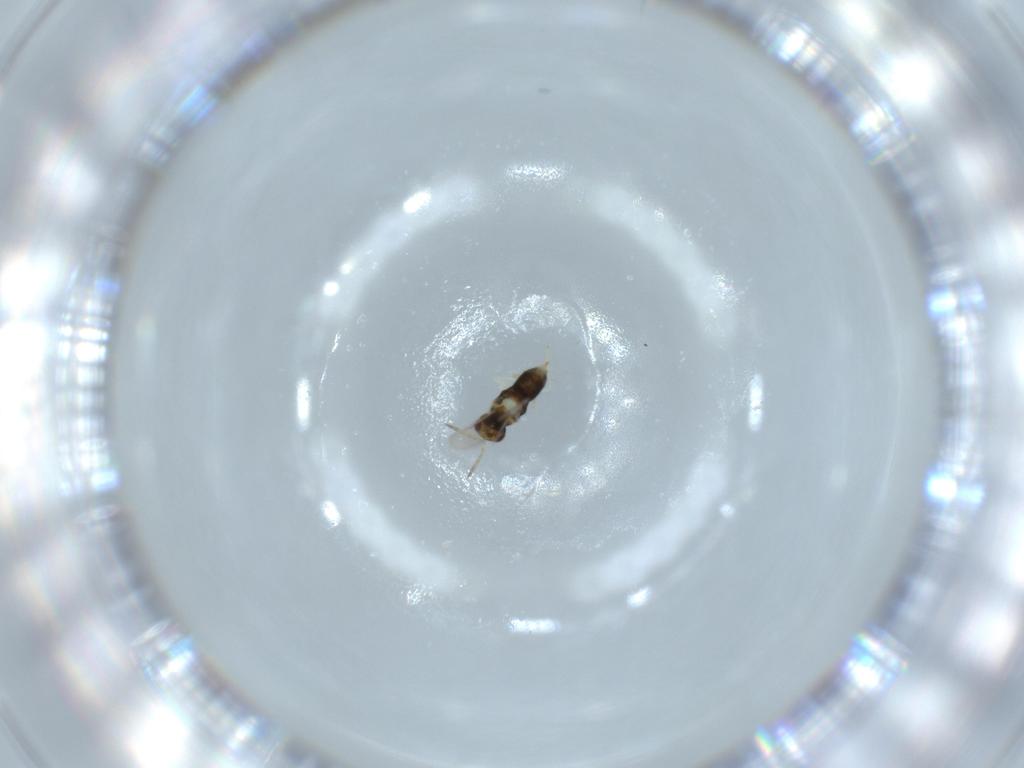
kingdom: Animalia
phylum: Arthropoda
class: Insecta
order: Hymenoptera
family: Aphelinidae
